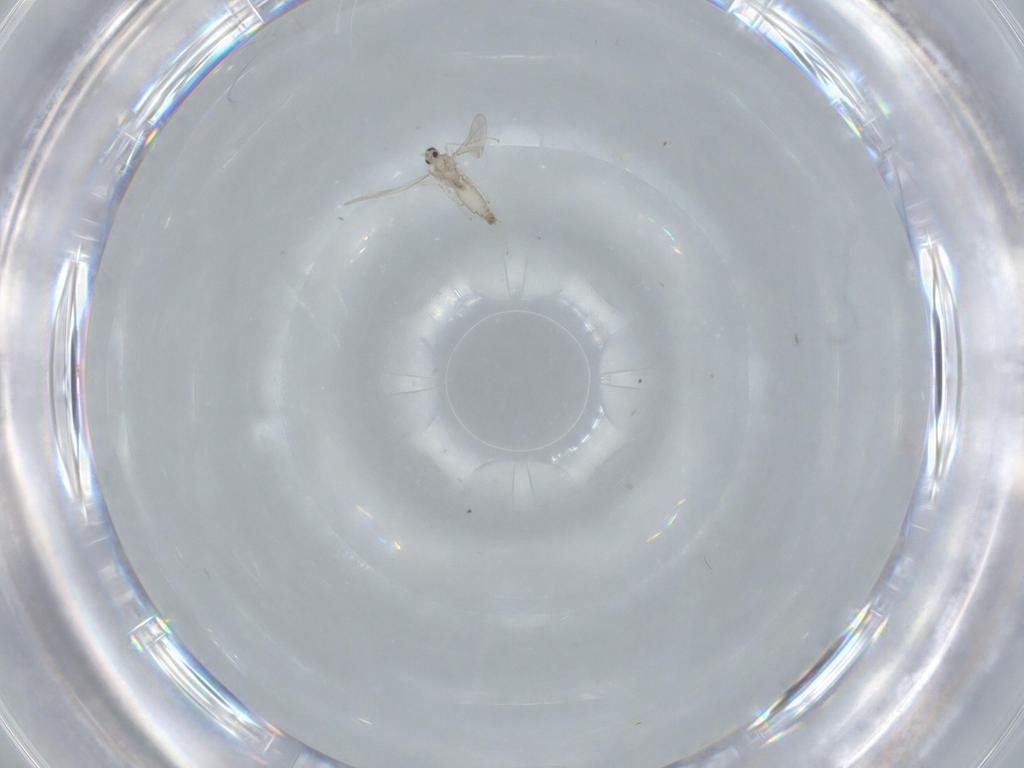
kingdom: Animalia
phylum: Arthropoda
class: Insecta
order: Diptera
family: Cecidomyiidae
